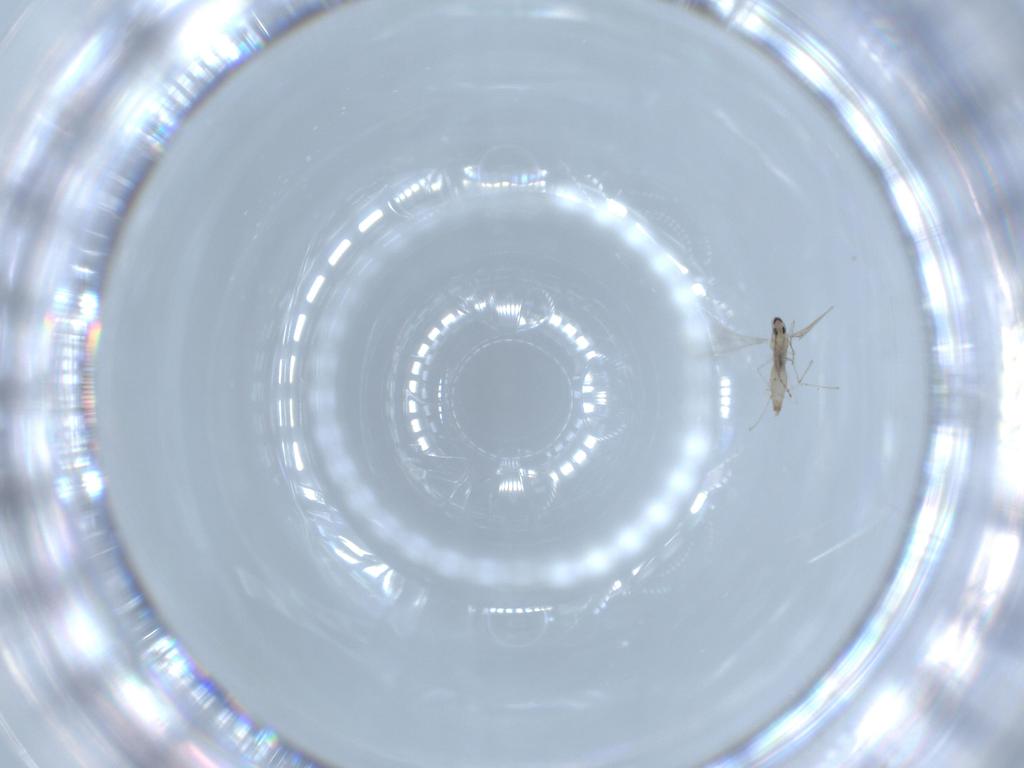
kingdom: Animalia
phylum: Arthropoda
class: Insecta
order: Diptera
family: Cecidomyiidae
